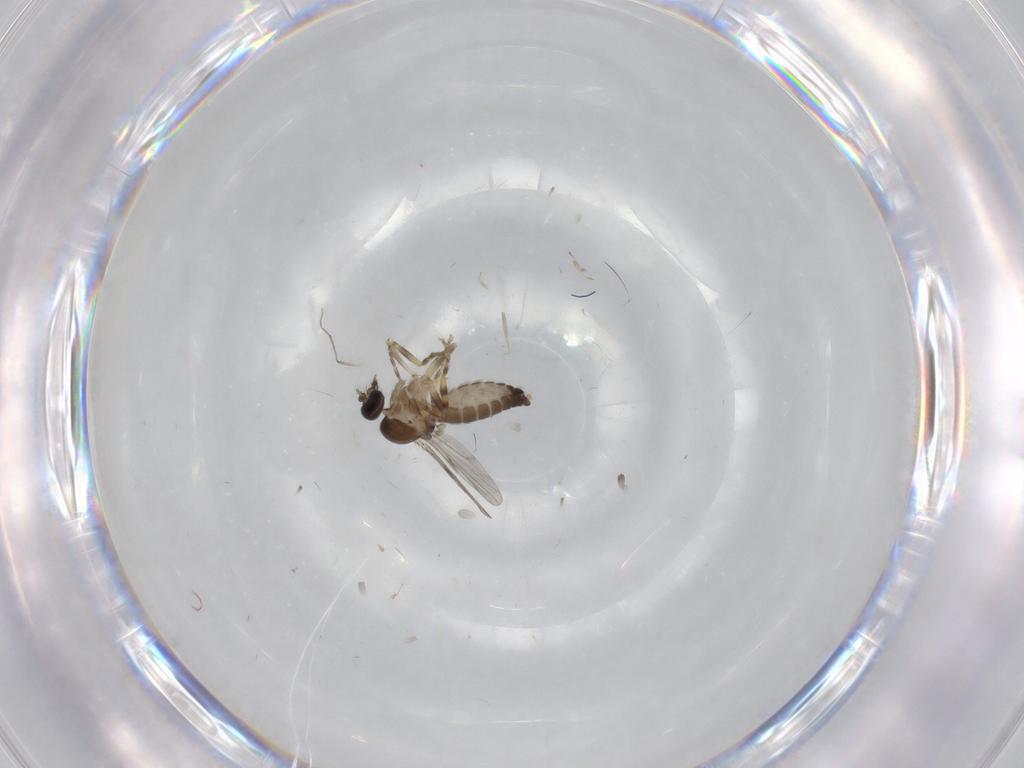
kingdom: Animalia
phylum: Arthropoda
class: Insecta
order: Diptera
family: Ceratopogonidae
